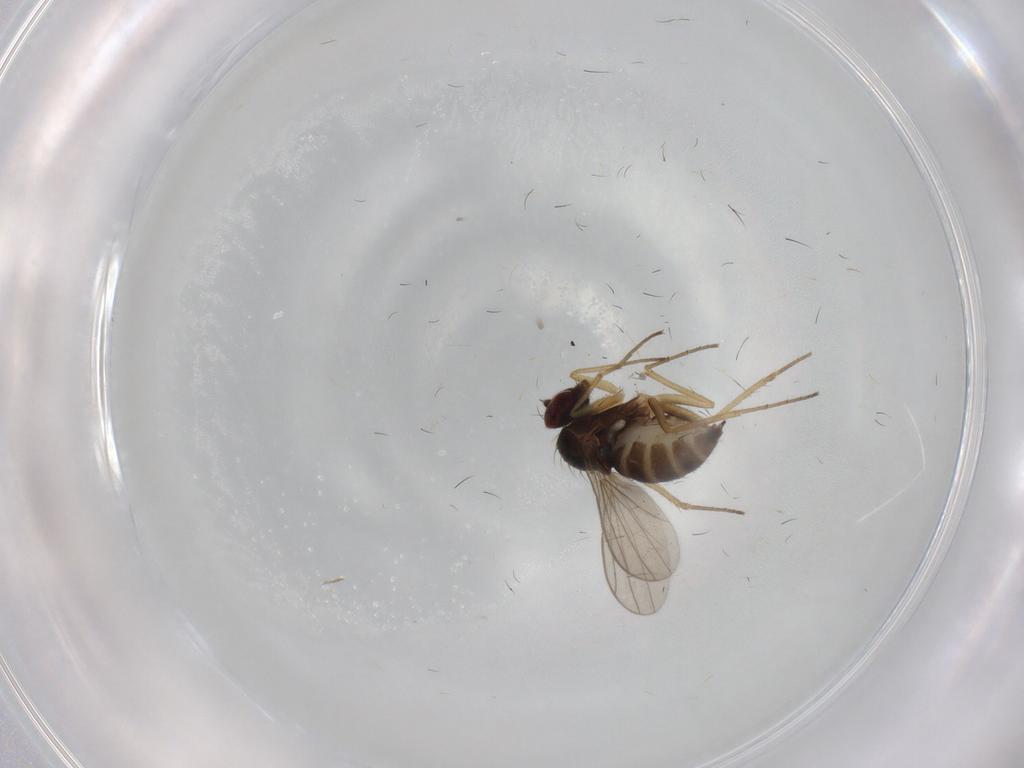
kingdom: Animalia
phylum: Arthropoda
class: Insecta
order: Diptera
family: Dolichopodidae
